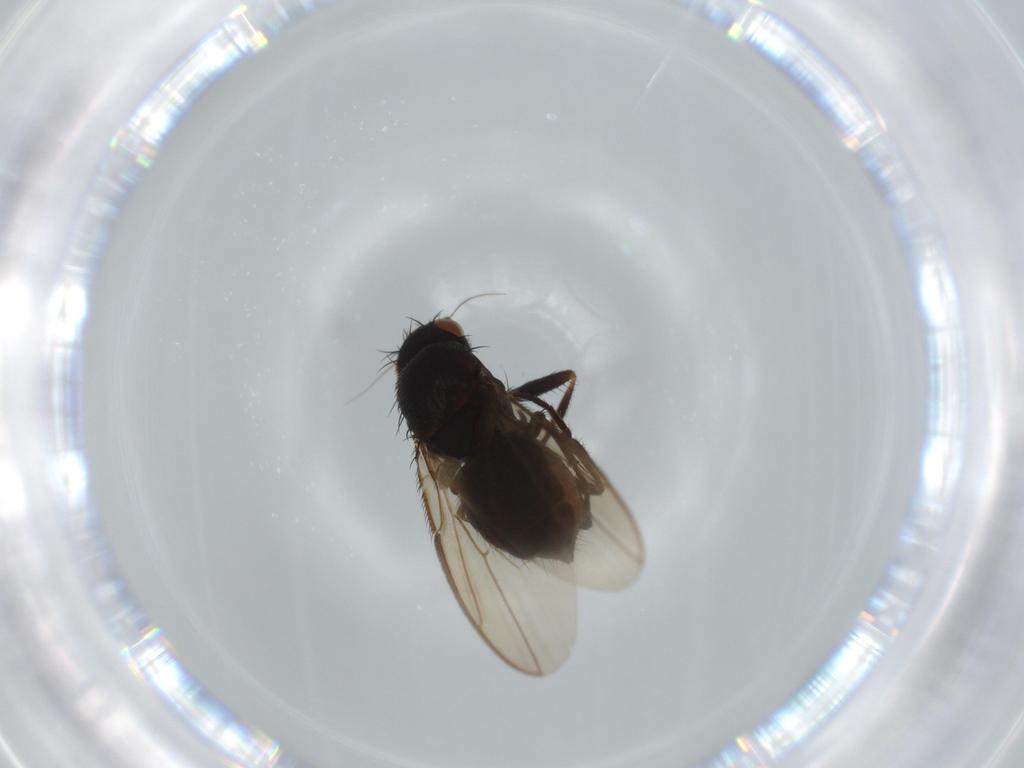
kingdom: Animalia
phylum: Arthropoda
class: Insecta
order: Diptera
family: Sphaeroceridae
